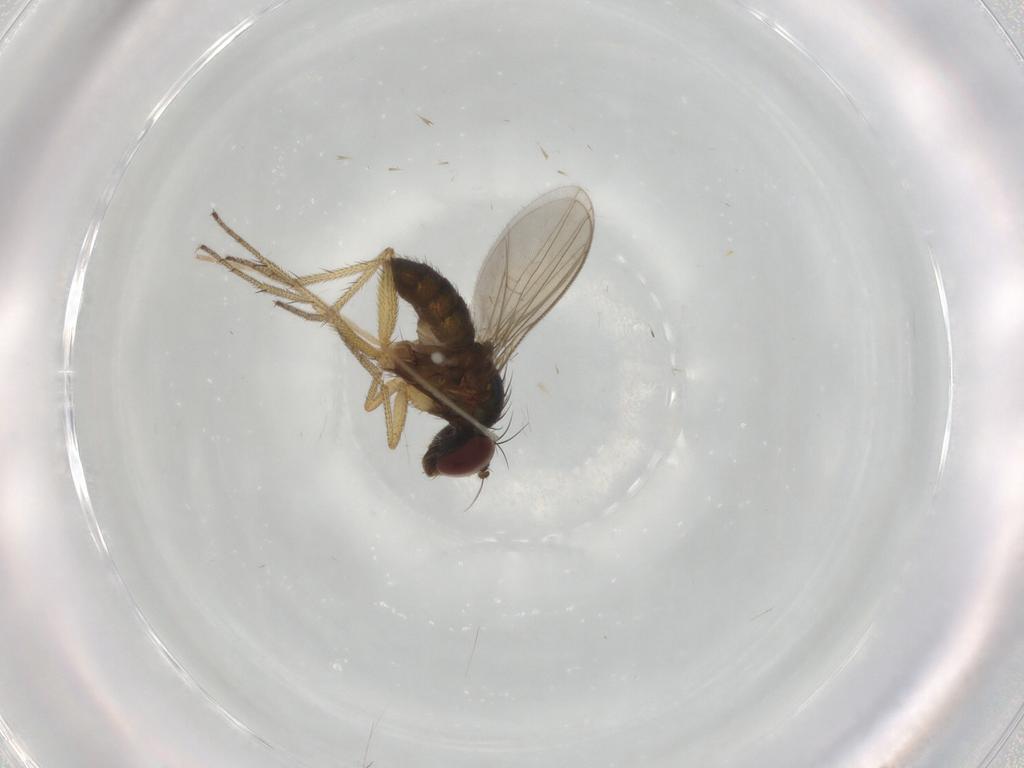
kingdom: Animalia
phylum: Arthropoda
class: Insecta
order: Diptera
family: Dolichopodidae
